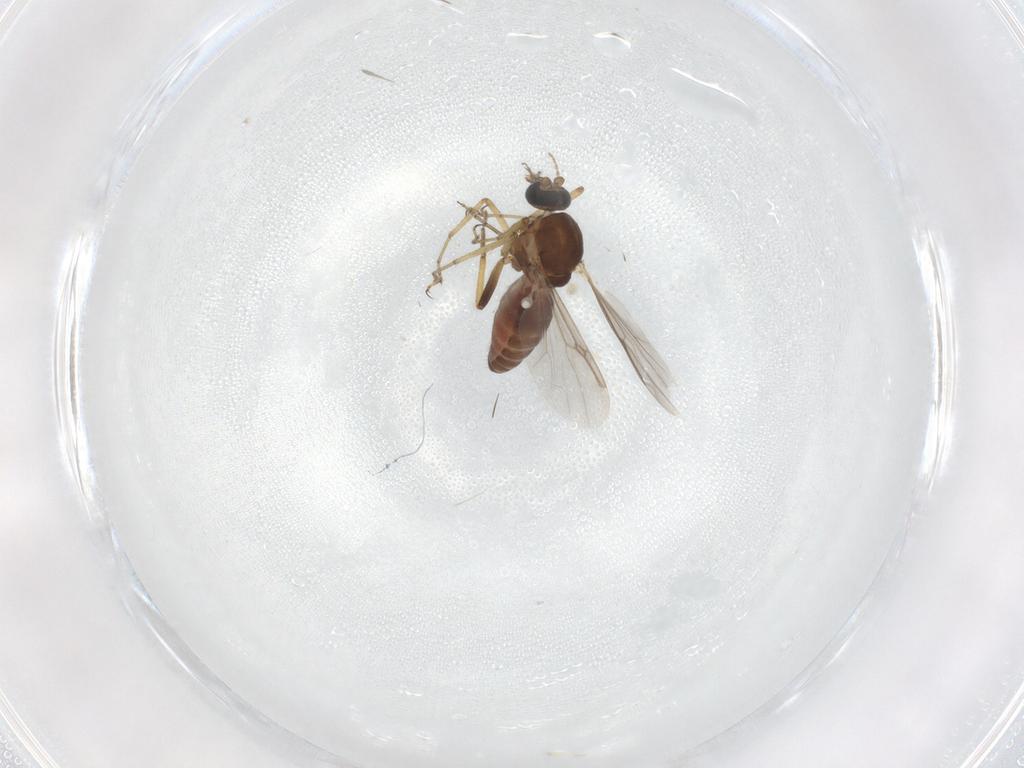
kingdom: Animalia
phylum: Arthropoda
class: Insecta
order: Diptera
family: Ceratopogonidae
